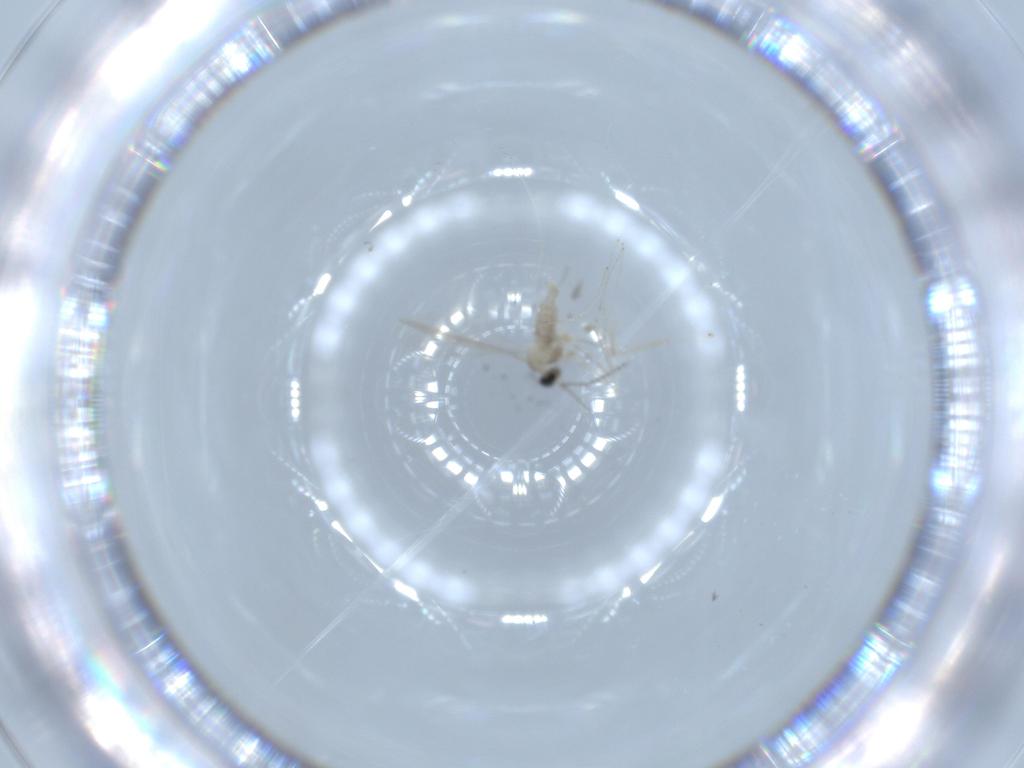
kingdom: Animalia
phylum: Arthropoda
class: Insecta
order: Diptera
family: Cecidomyiidae
